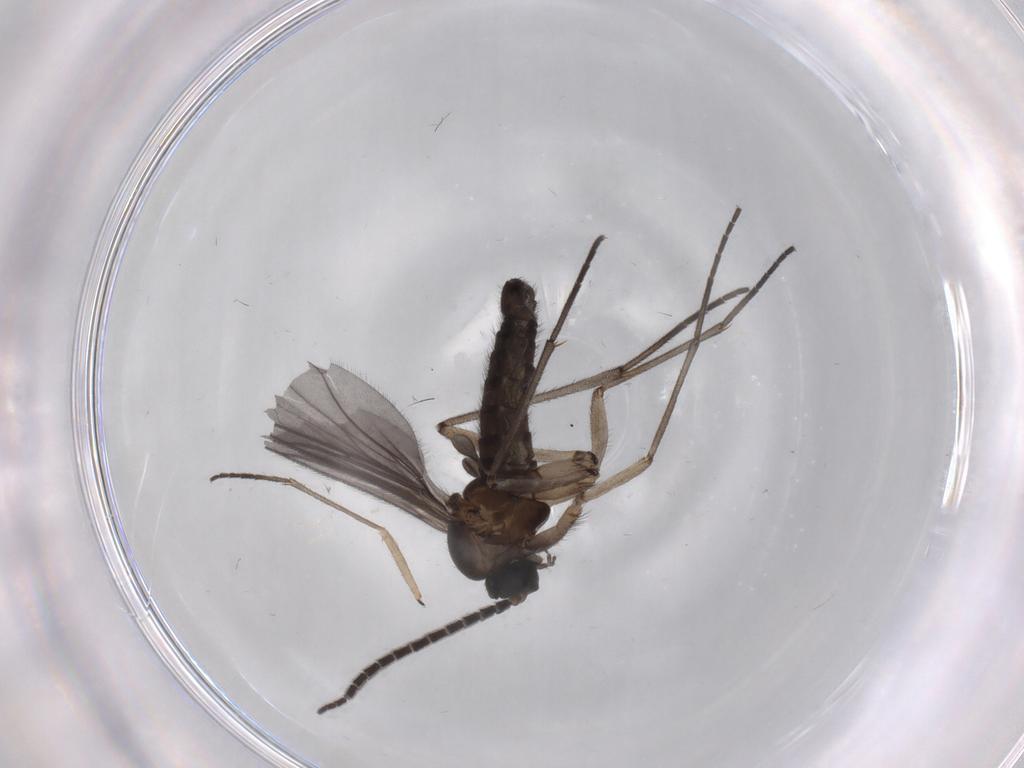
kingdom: Animalia
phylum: Arthropoda
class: Insecta
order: Diptera
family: Sciaridae
